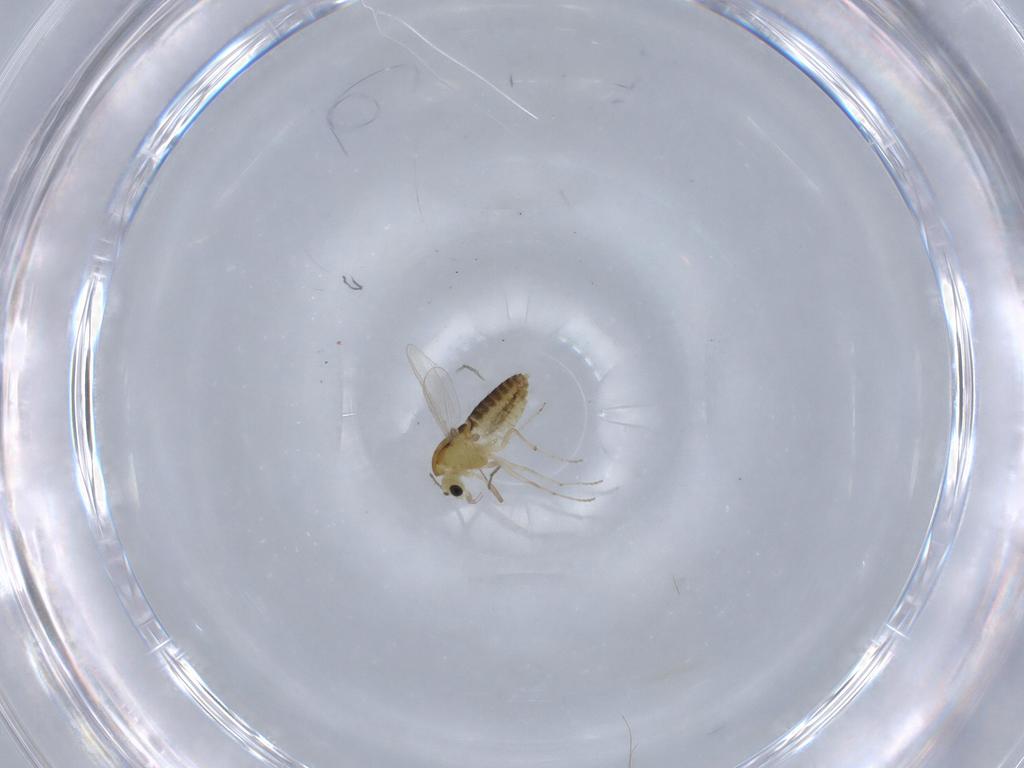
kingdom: Animalia
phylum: Arthropoda
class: Insecta
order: Diptera
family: Chironomidae
